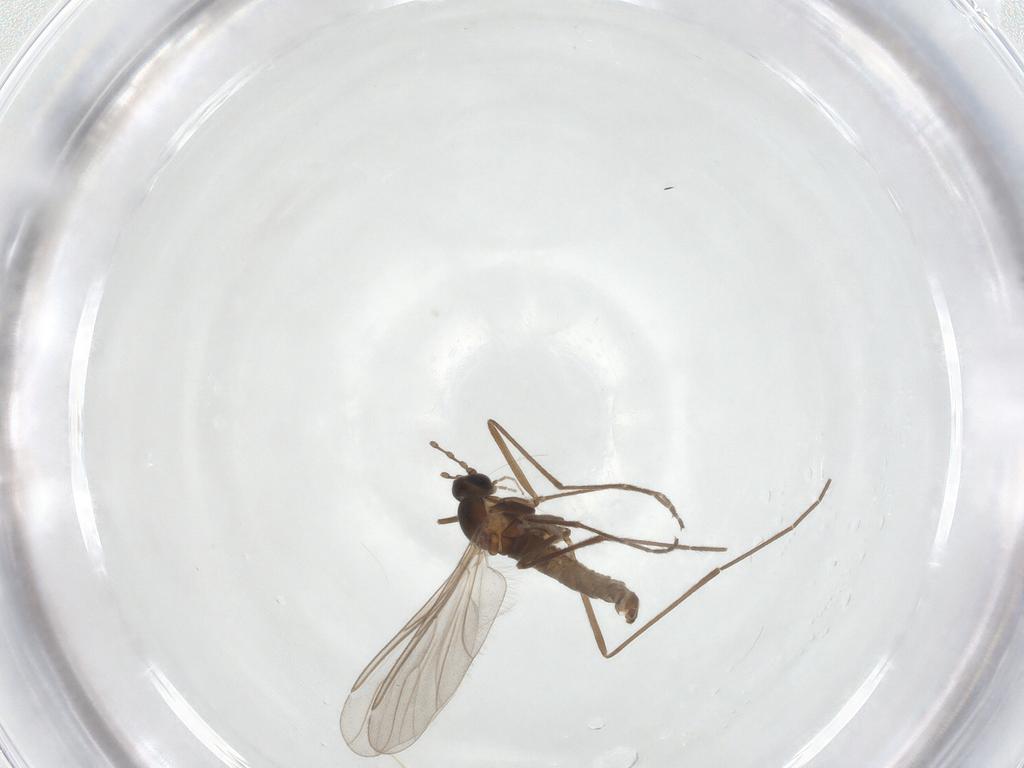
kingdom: Animalia
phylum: Arthropoda
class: Insecta
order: Diptera
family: Cecidomyiidae
